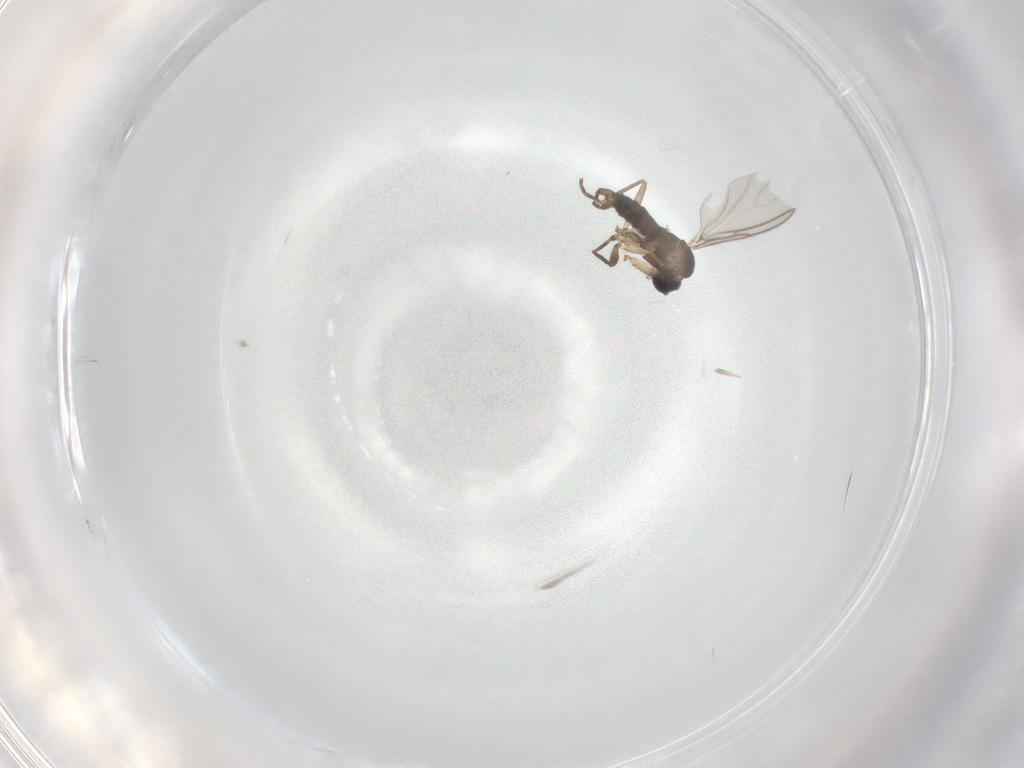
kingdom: Animalia
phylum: Arthropoda
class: Insecta
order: Diptera
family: Sciaridae
